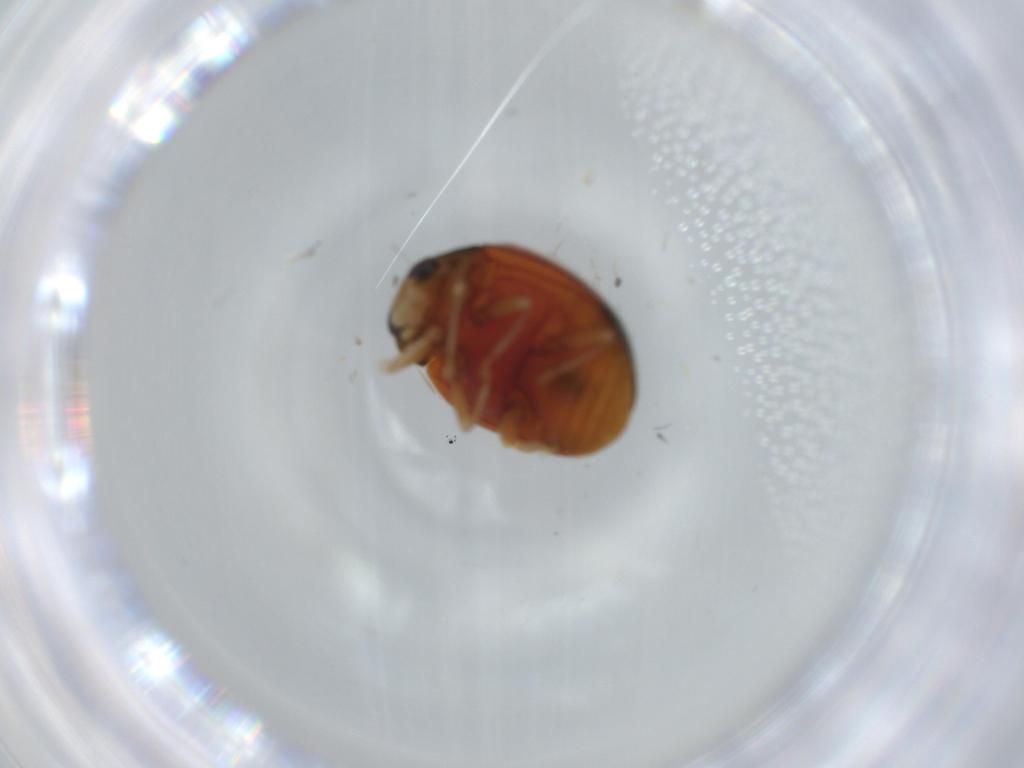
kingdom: Animalia
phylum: Arthropoda
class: Insecta
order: Coleoptera
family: Coccinellidae
